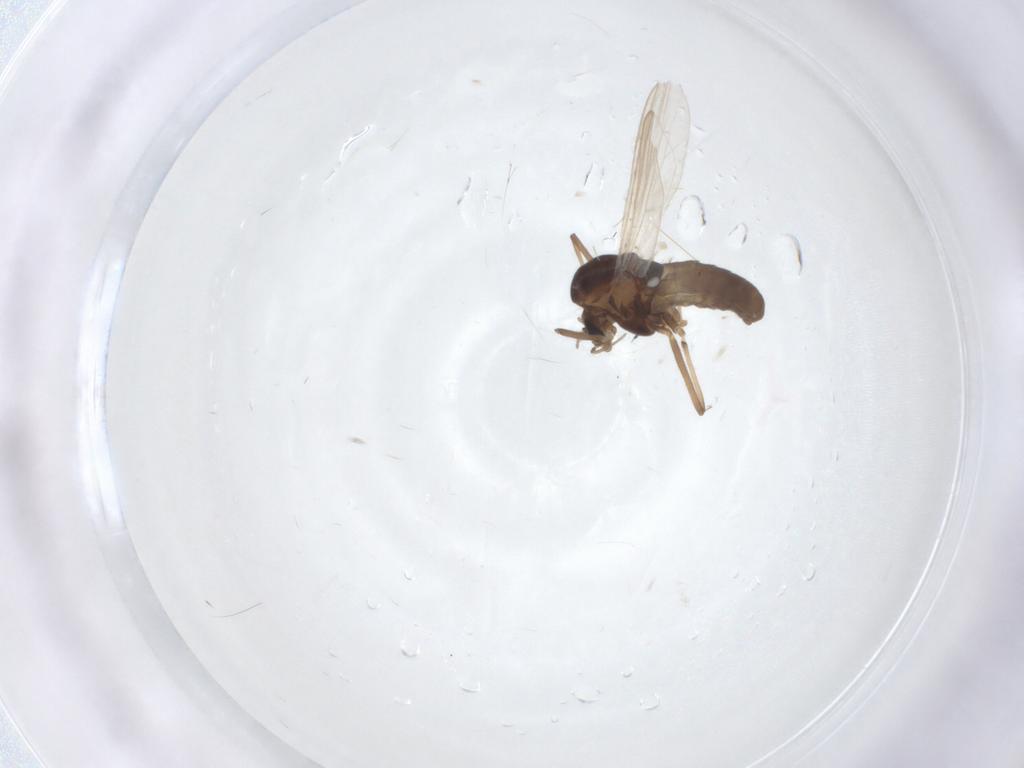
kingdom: Animalia
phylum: Arthropoda
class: Insecta
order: Diptera
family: Chironomidae
